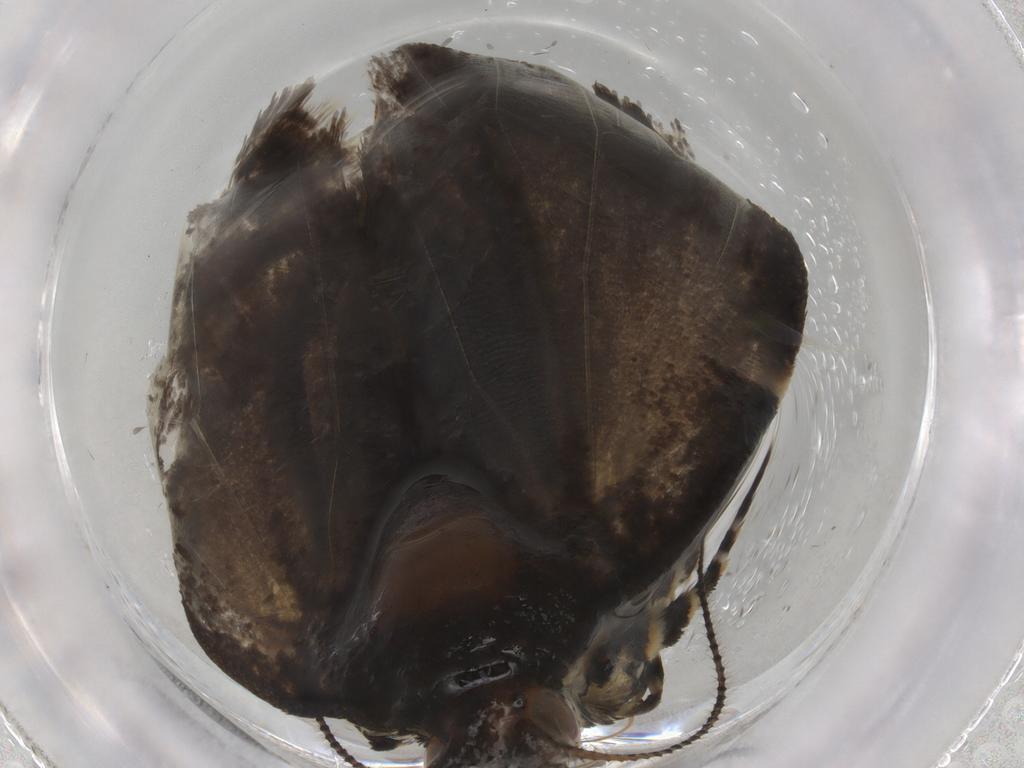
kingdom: Animalia
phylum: Arthropoda
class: Insecta
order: Lepidoptera
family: Choreutidae
